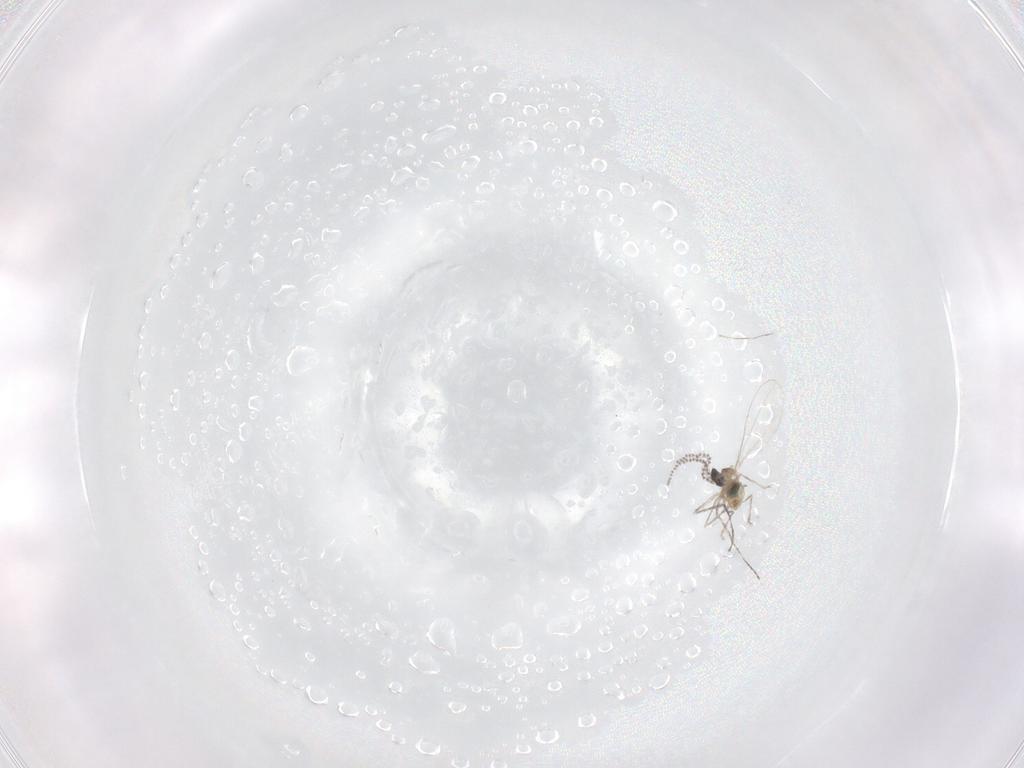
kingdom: Animalia
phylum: Arthropoda
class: Insecta
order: Diptera
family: Cecidomyiidae
